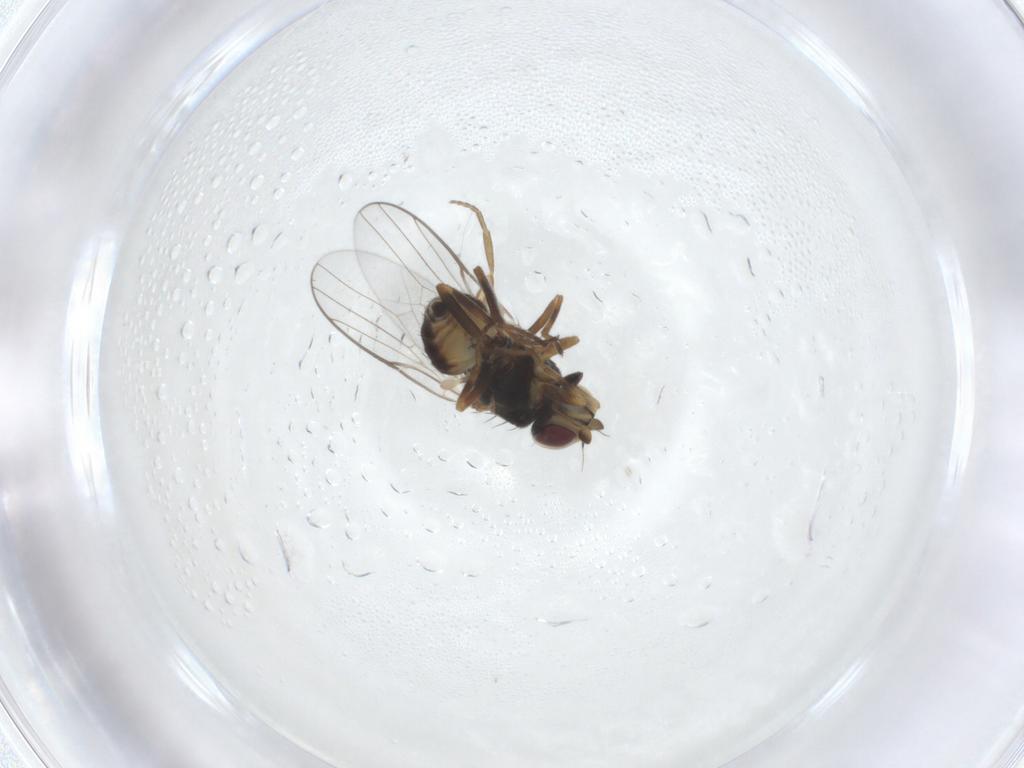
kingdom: Animalia
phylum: Arthropoda
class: Insecta
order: Diptera
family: Chloropidae
